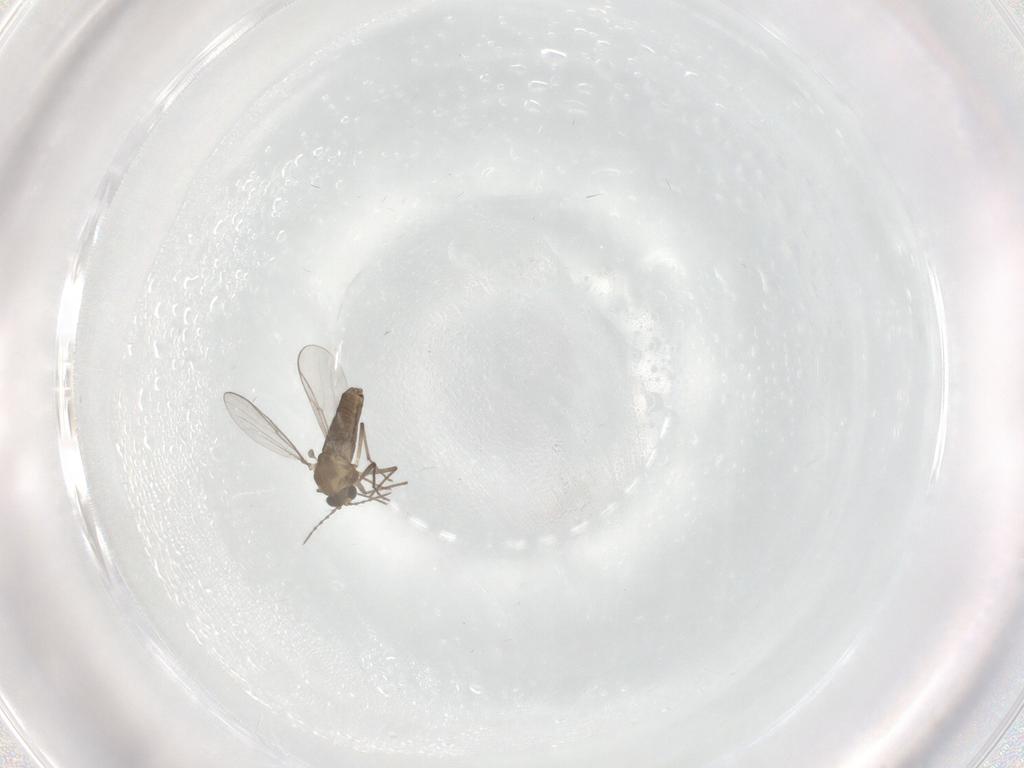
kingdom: Animalia
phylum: Arthropoda
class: Insecta
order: Diptera
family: Chironomidae
